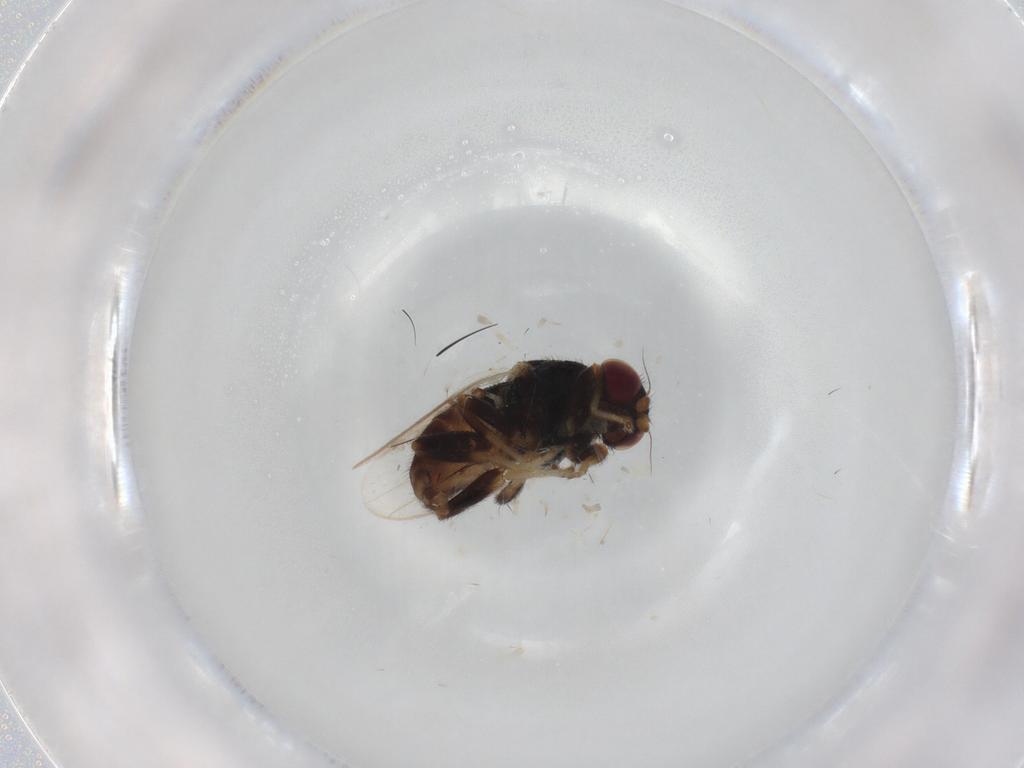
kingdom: Animalia
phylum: Arthropoda
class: Insecta
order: Diptera
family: Chloropidae
